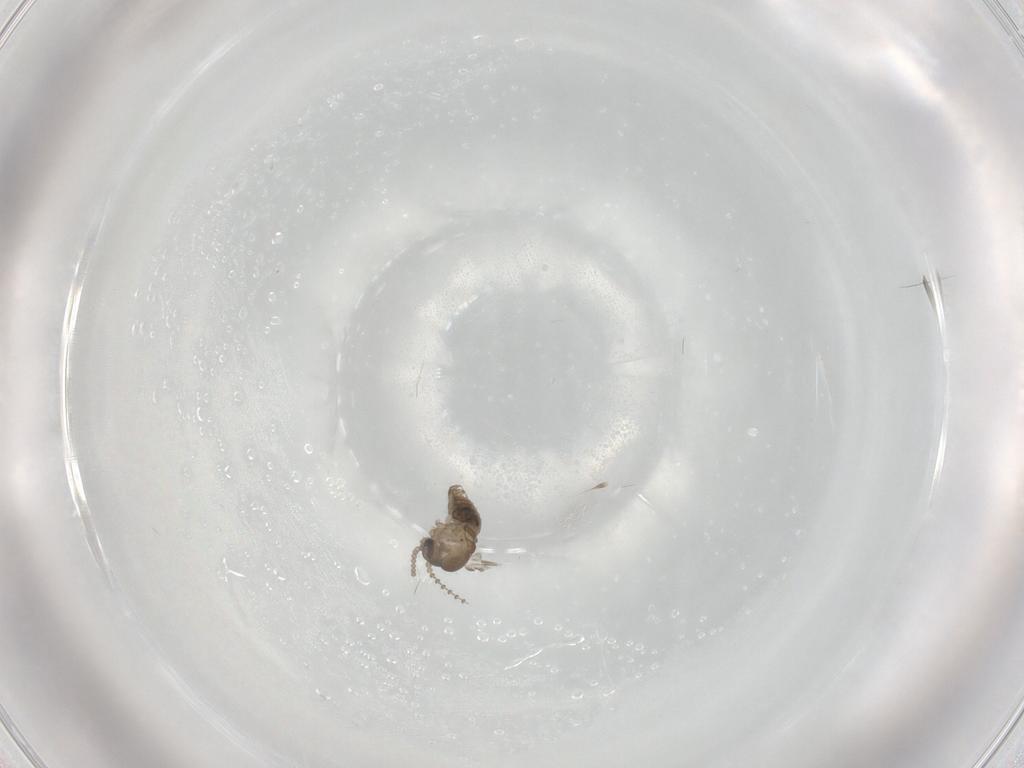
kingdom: Animalia
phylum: Arthropoda
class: Insecta
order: Diptera
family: Psychodidae
